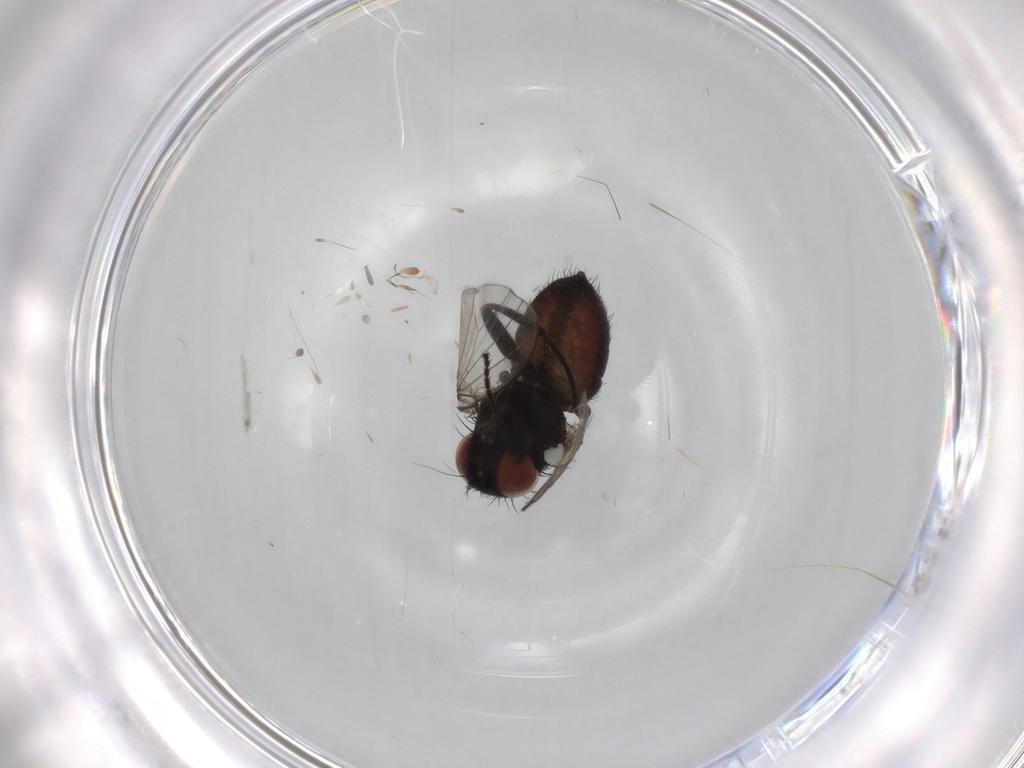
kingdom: Animalia
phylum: Arthropoda
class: Insecta
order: Diptera
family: Sciaridae
